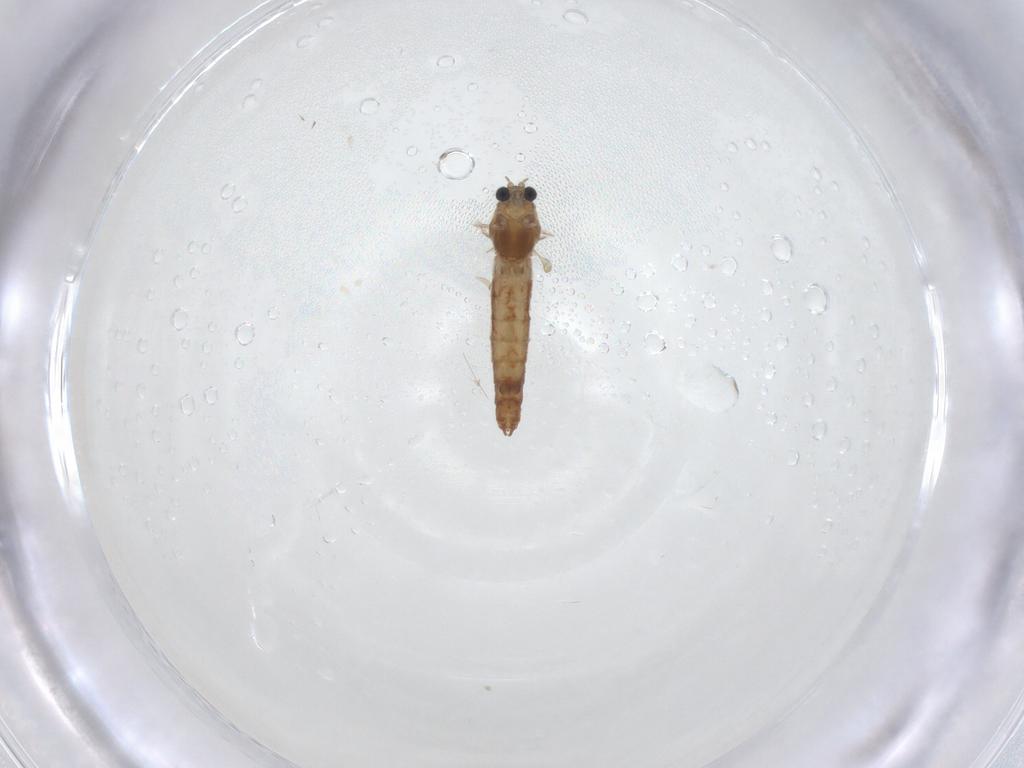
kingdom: Animalia
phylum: Arthropoda
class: Insecta
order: Diptera
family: Chironomidae
